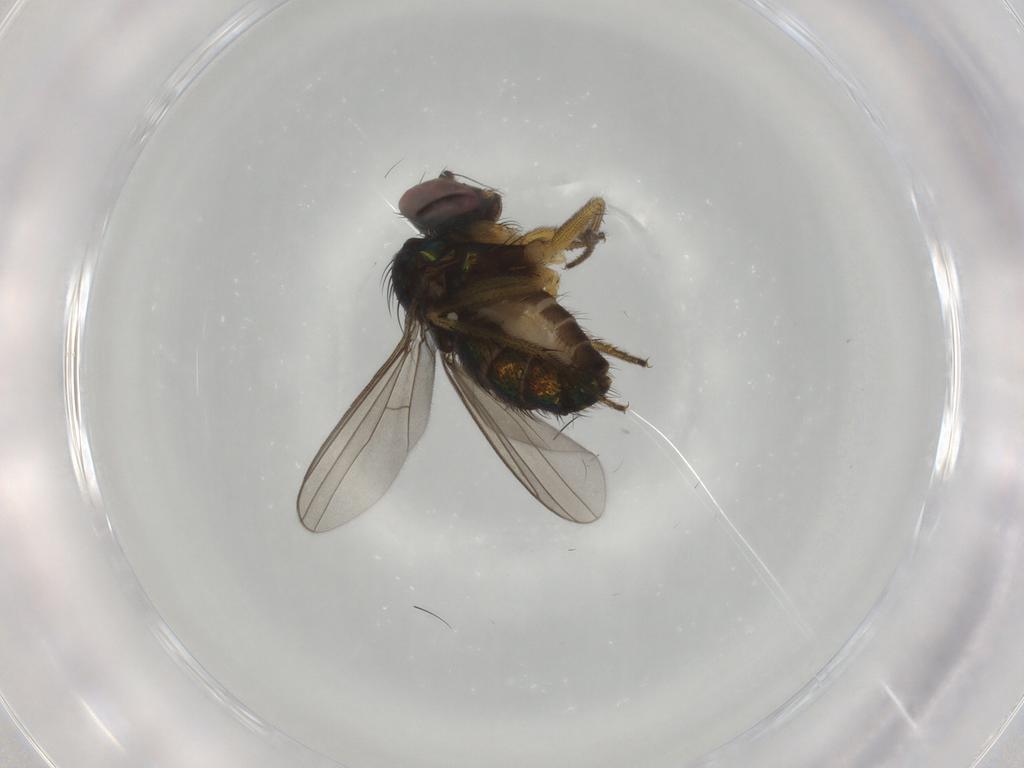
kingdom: Animalia
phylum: Arthropoda
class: Insecta
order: Diptera
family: Dolichopodidae
